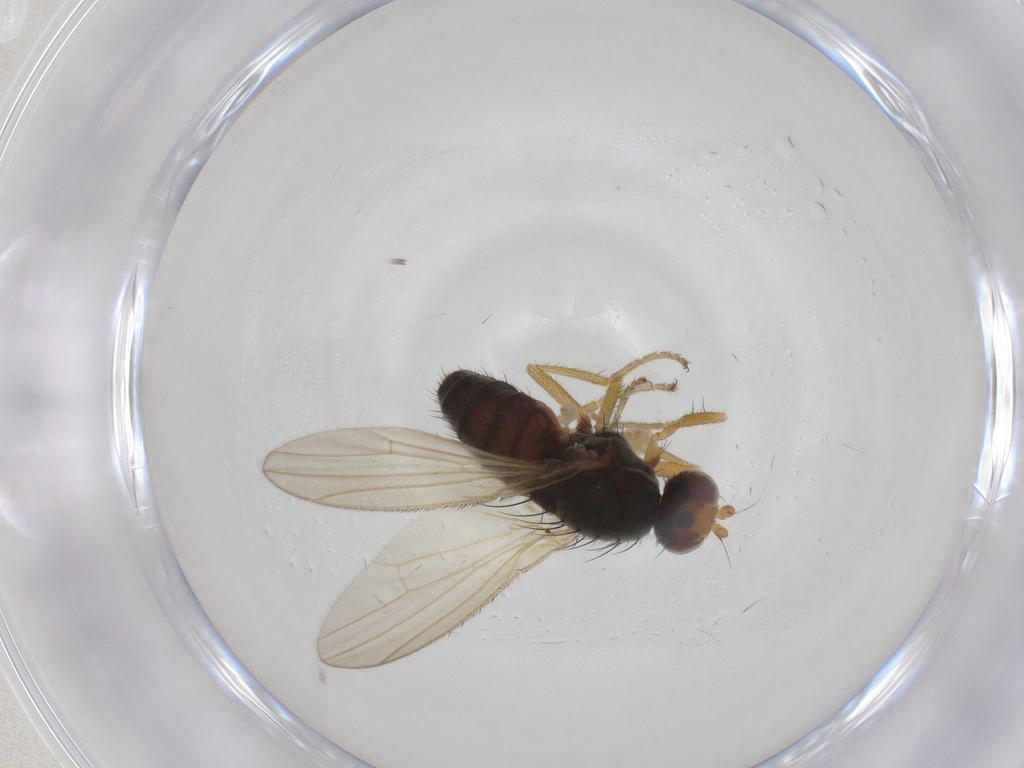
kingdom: Animalia
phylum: Arthropoda
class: Insecta
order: Diptera
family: Heleomyzidae
